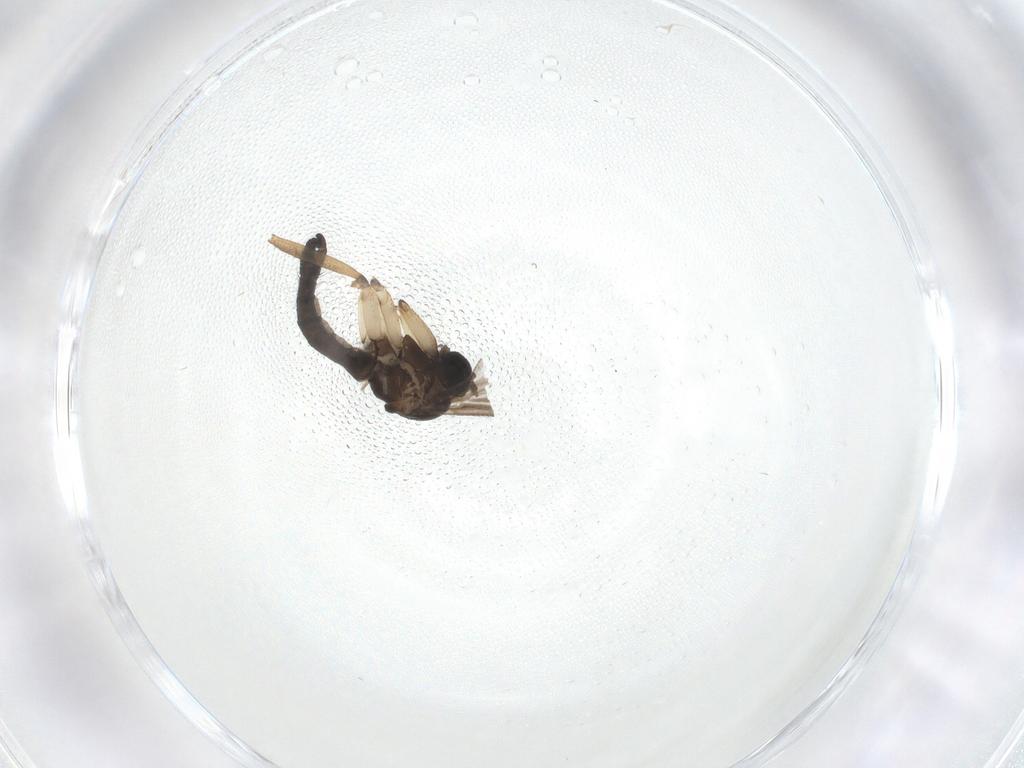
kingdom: Animalia
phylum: Arthropoda
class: Insecta
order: Diptera
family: Sciaridae
